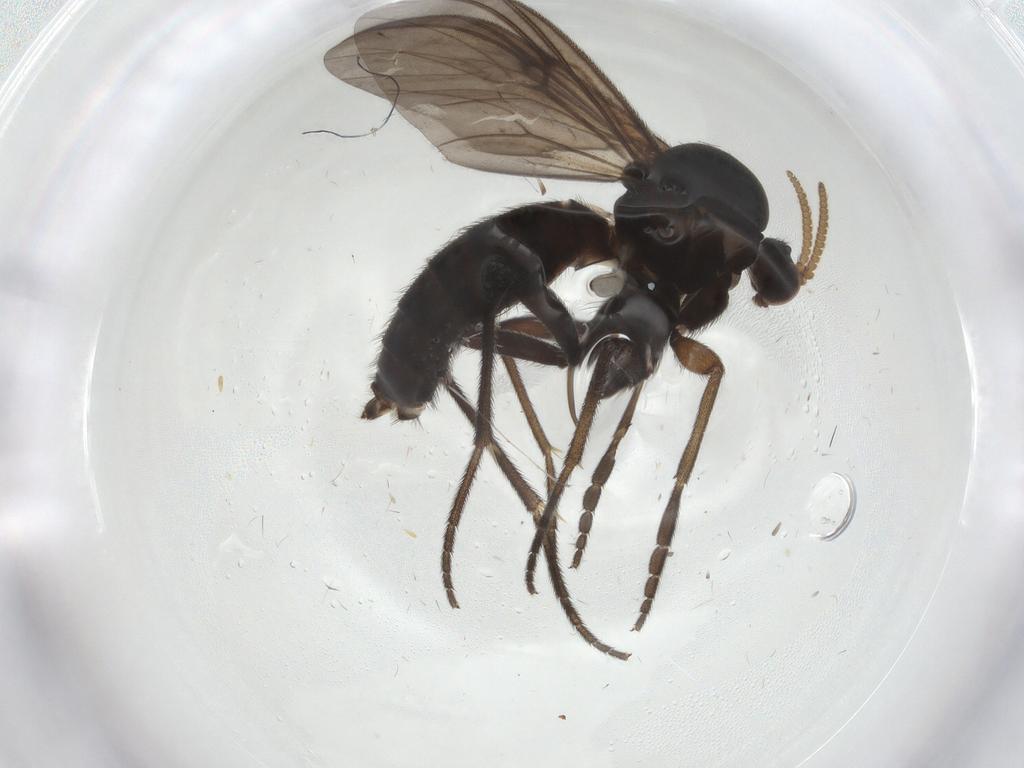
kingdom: Animalia
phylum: Arthropoda
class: Insecta
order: Diptera
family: Mycetophilidae
